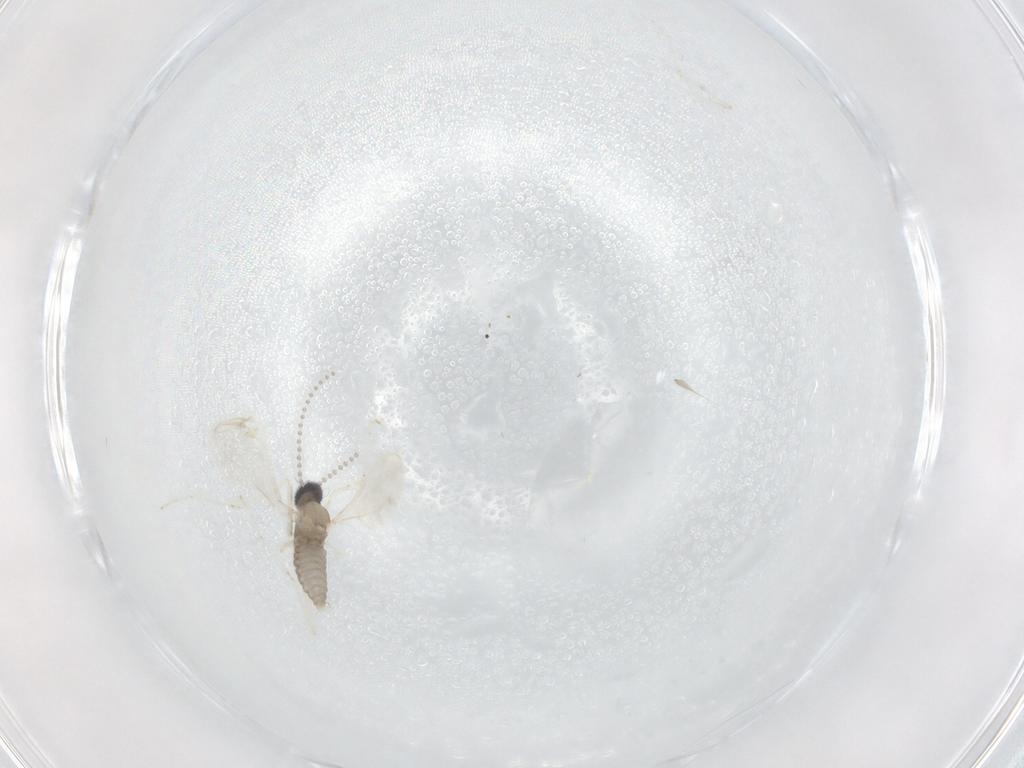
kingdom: Animalia
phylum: Arthropoda
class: Insecta
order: Diptera
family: Cecidomyiidae
